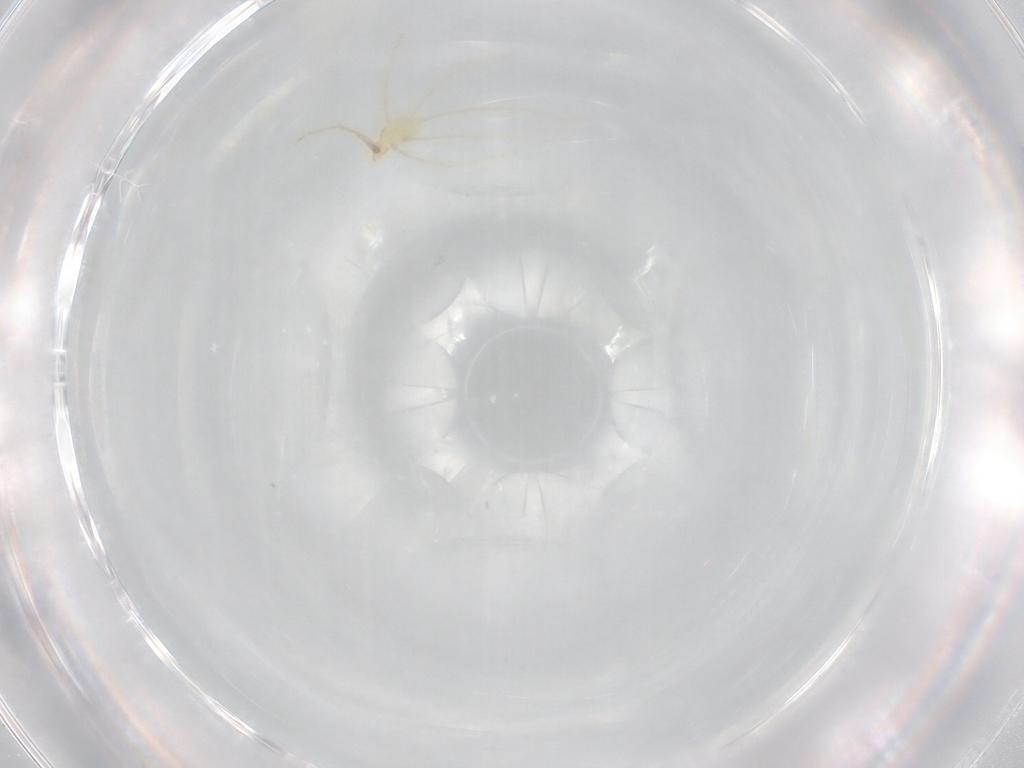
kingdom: Animalia
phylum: Arthropoda
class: Arachnida
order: Trombidiformes
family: Erythraeidae
